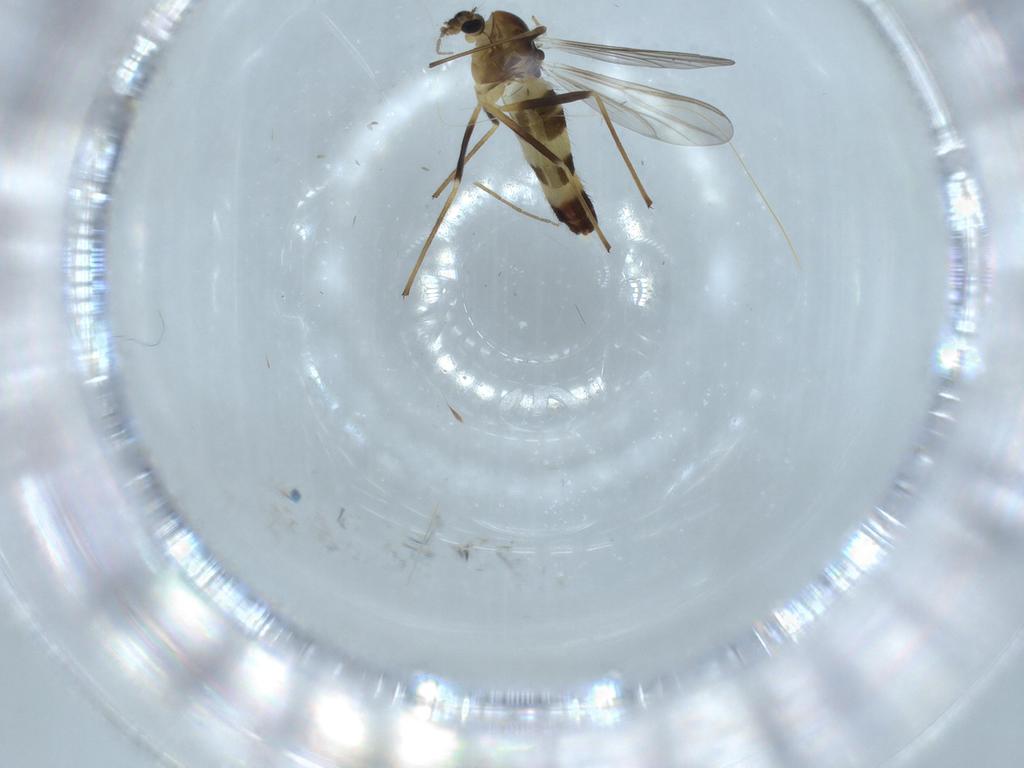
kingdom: Animalia
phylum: Arthropoda
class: Insecta
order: Diptera
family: Chironomidae
